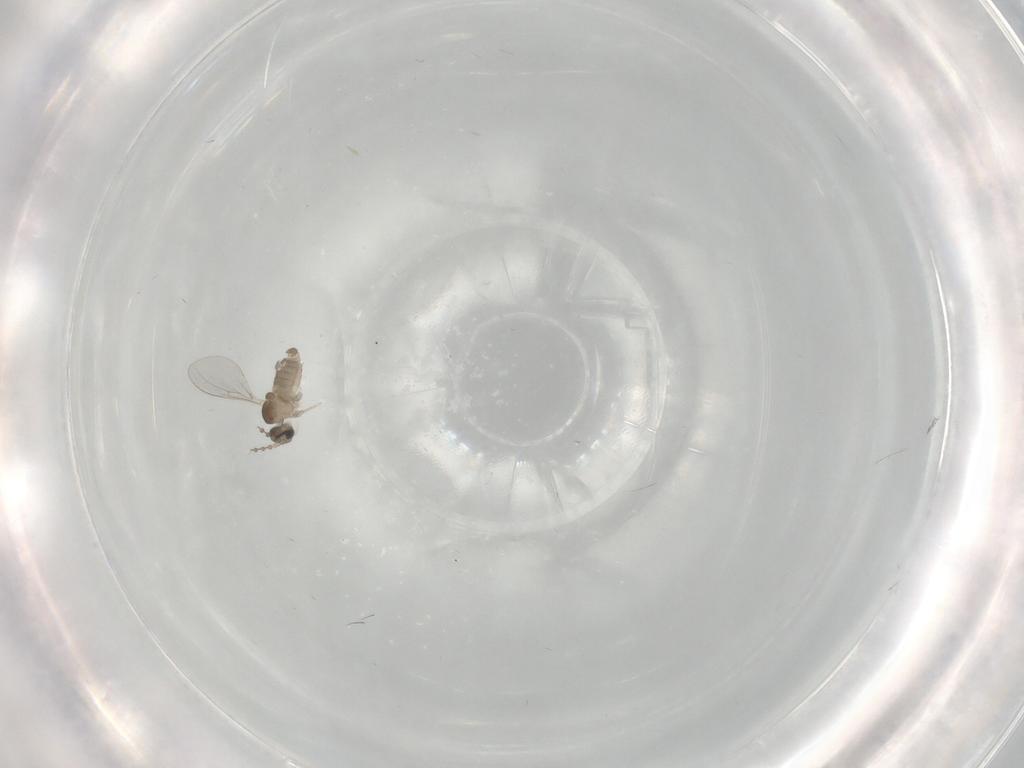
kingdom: Animalia
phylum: Arthropoda
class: Insecta
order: Diptera
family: Cecidomyiidae
